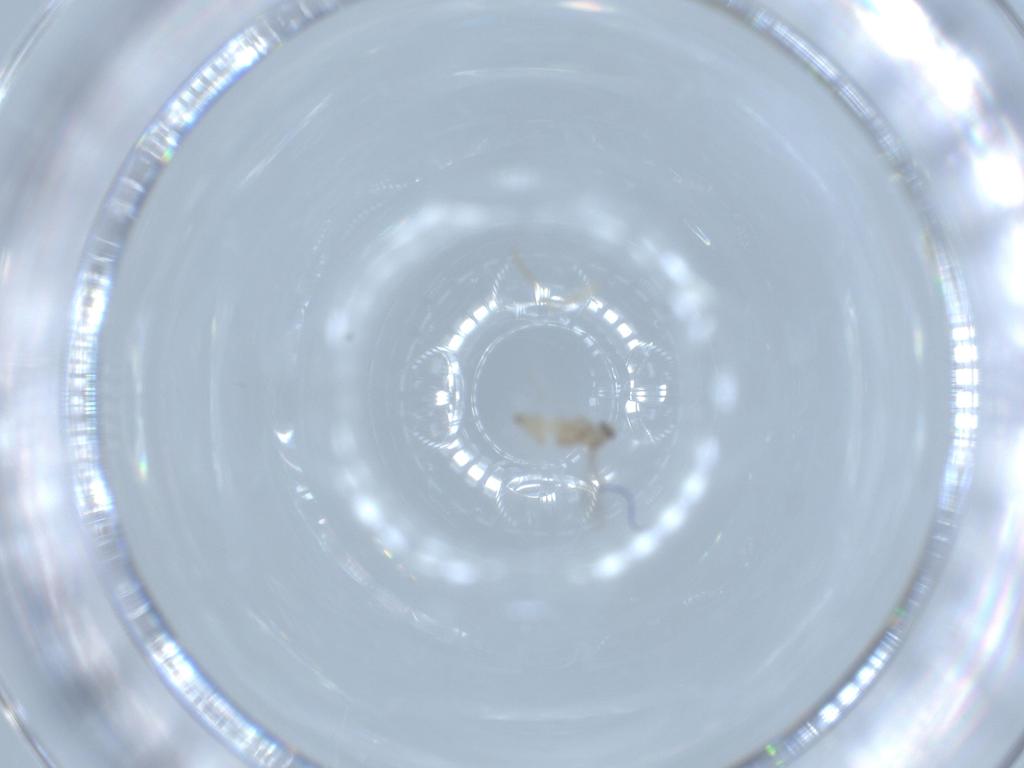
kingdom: Animalia
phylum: Arthropoda
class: Insecta
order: Diptera
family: Cecidomyiidae
